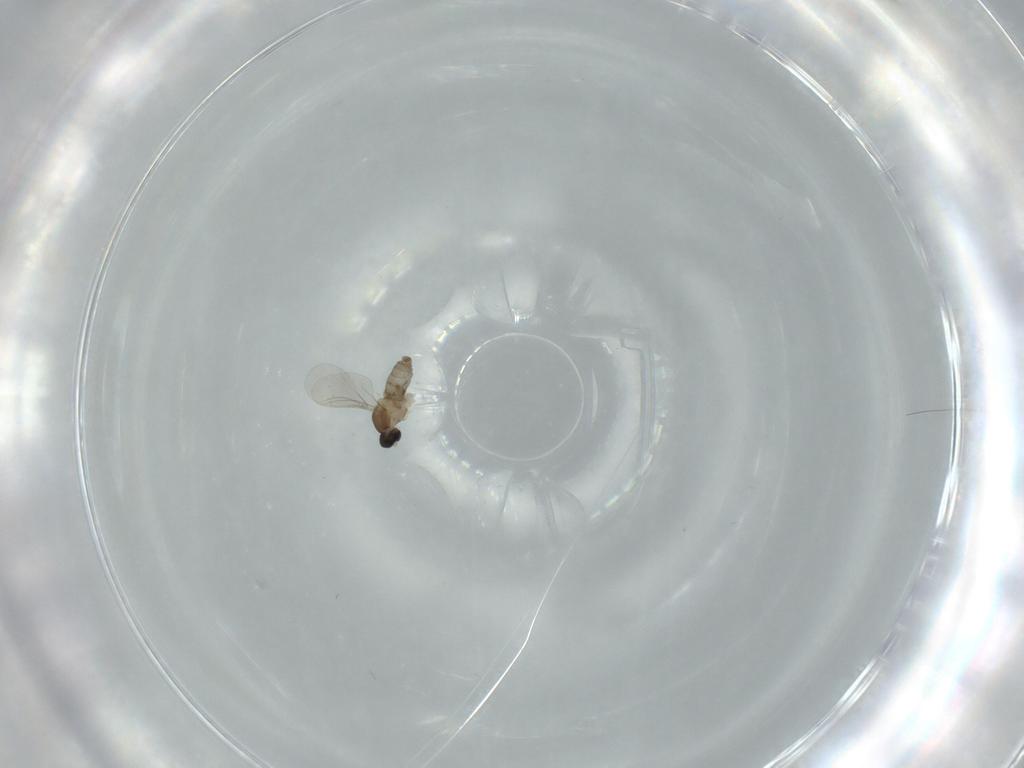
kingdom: Animalia
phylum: Arthropoda
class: Insecta
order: Diptera
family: Cecidomyiidae
